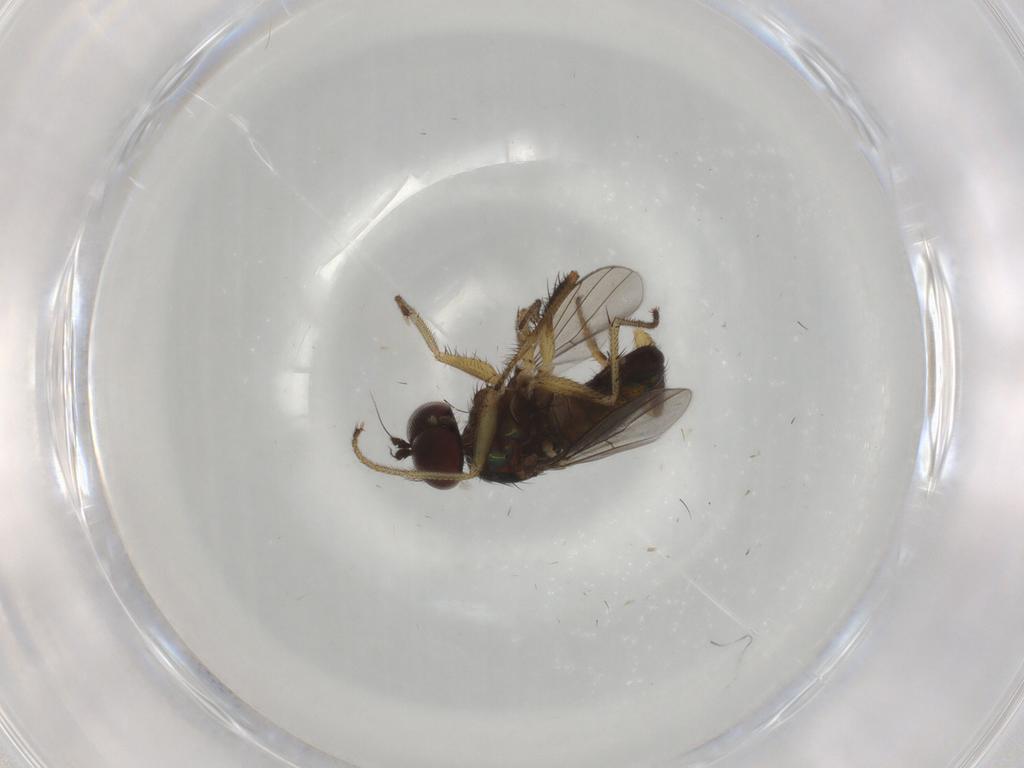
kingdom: Animalia
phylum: Arthropoda
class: Insecta
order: Diptera
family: Dolichopodidae
